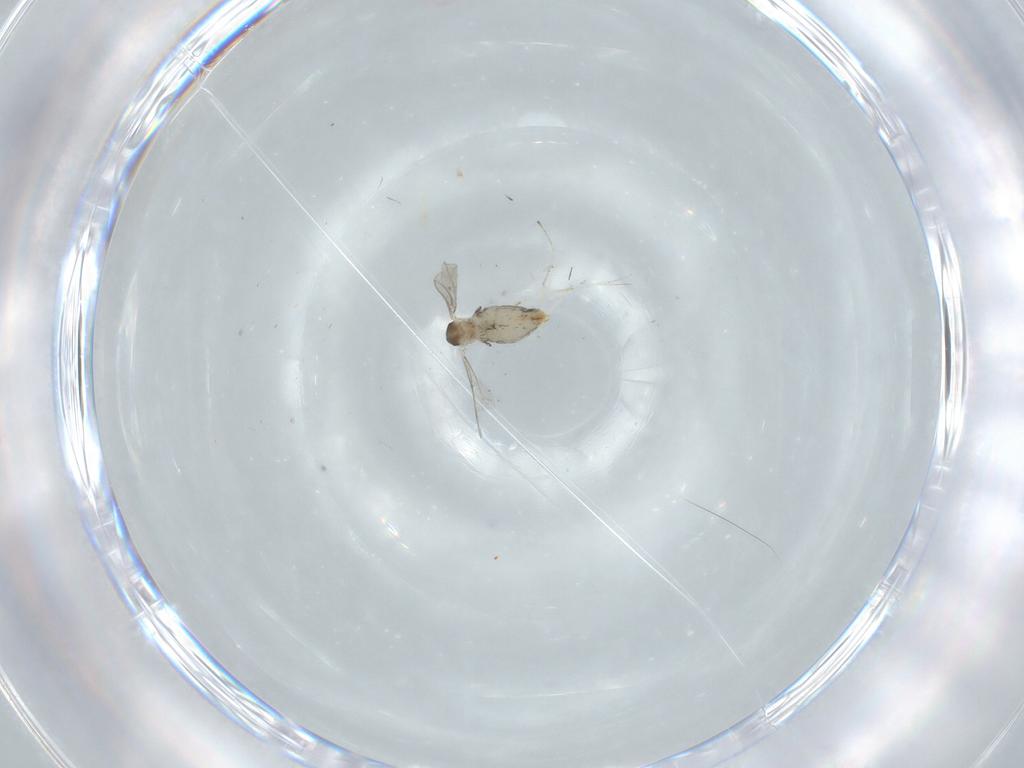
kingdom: Animalia
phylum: Arthropoda
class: Insecta
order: Diptera
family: Cecidomyiidae
